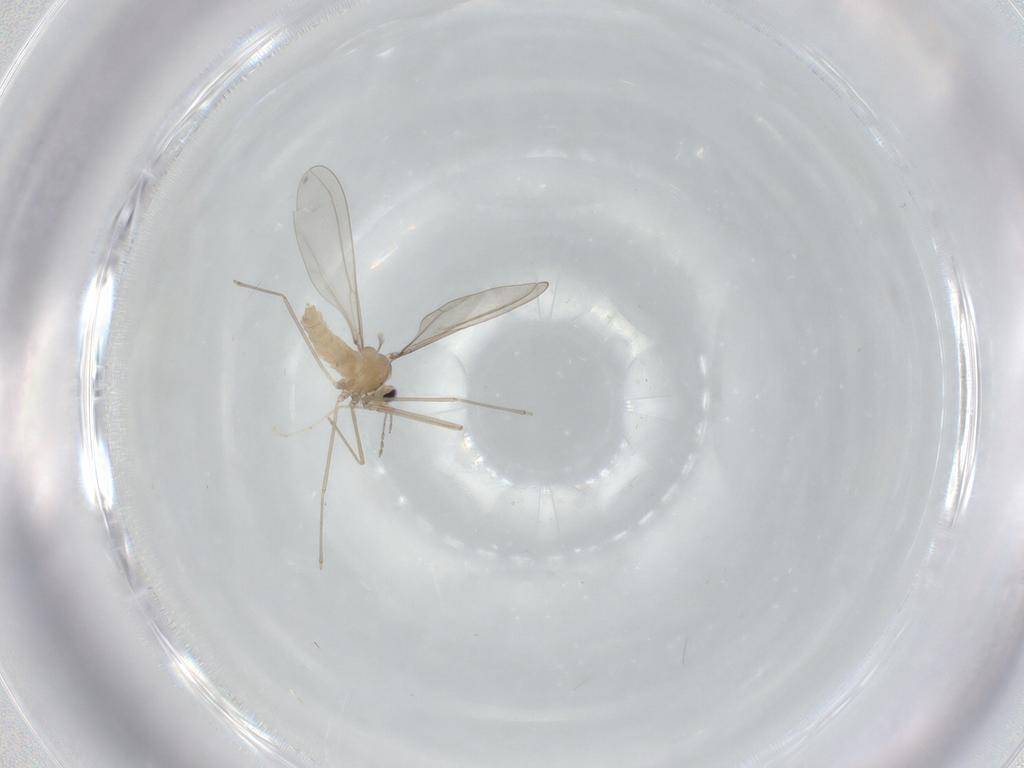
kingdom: Animalia
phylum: Arthropoda
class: Insecta
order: Diptera
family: Cecidomyiidae
